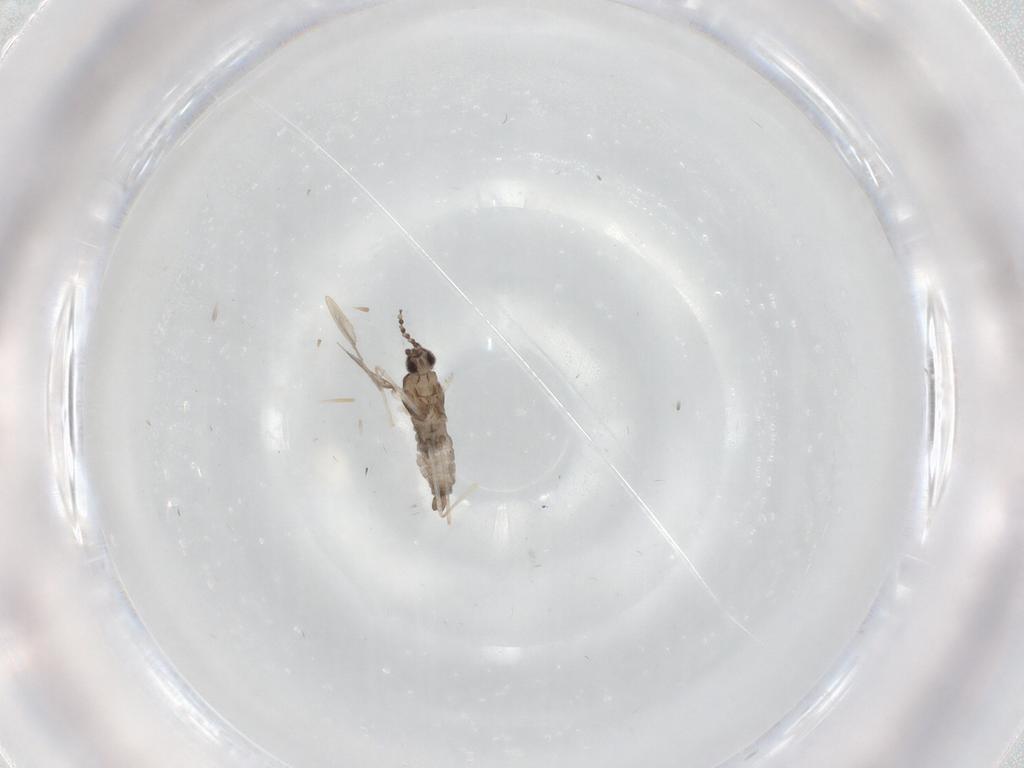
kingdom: Animalia
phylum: Arthropoda
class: Insecta
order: Diptera
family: Cecidomyiidae
